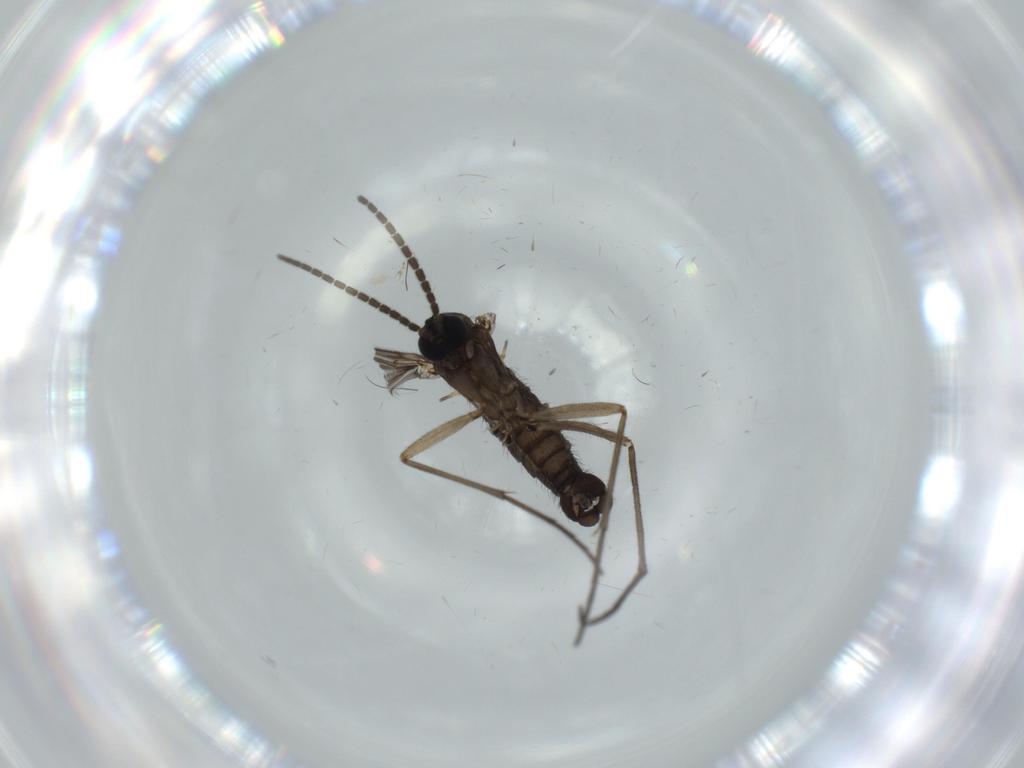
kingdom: Animalia
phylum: Arthropoda
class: Insecta
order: Diptera
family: Sciaridae
